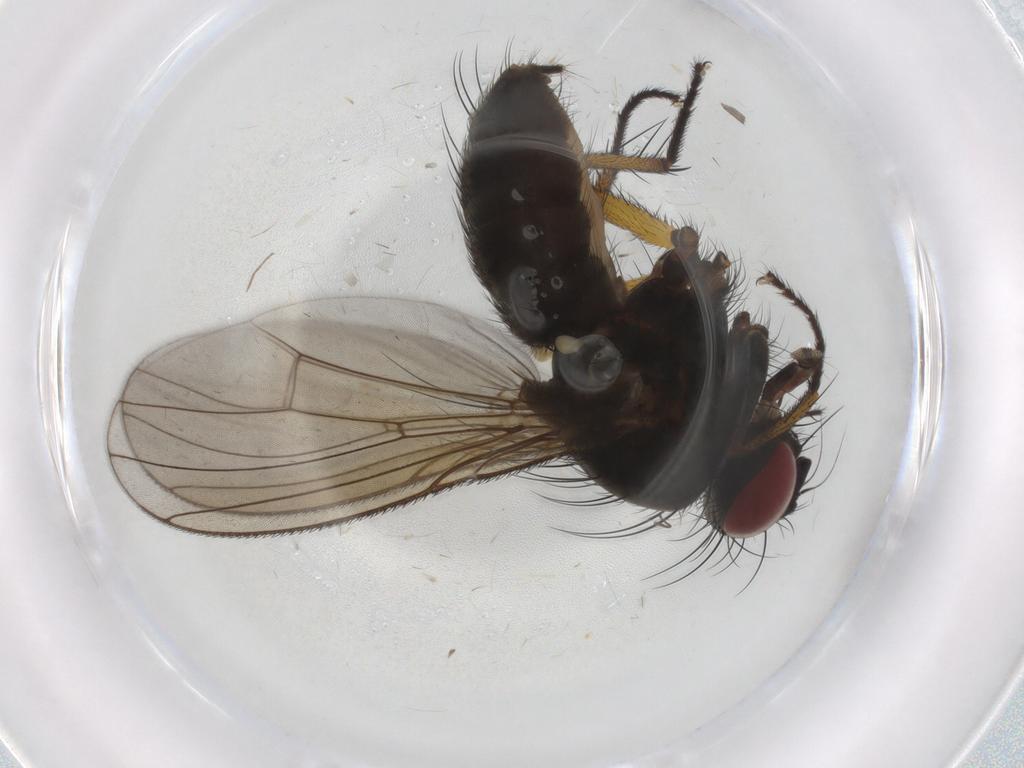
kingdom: Animalia
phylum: Arthropoda
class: Insecta
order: Diptera
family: Muscidae
